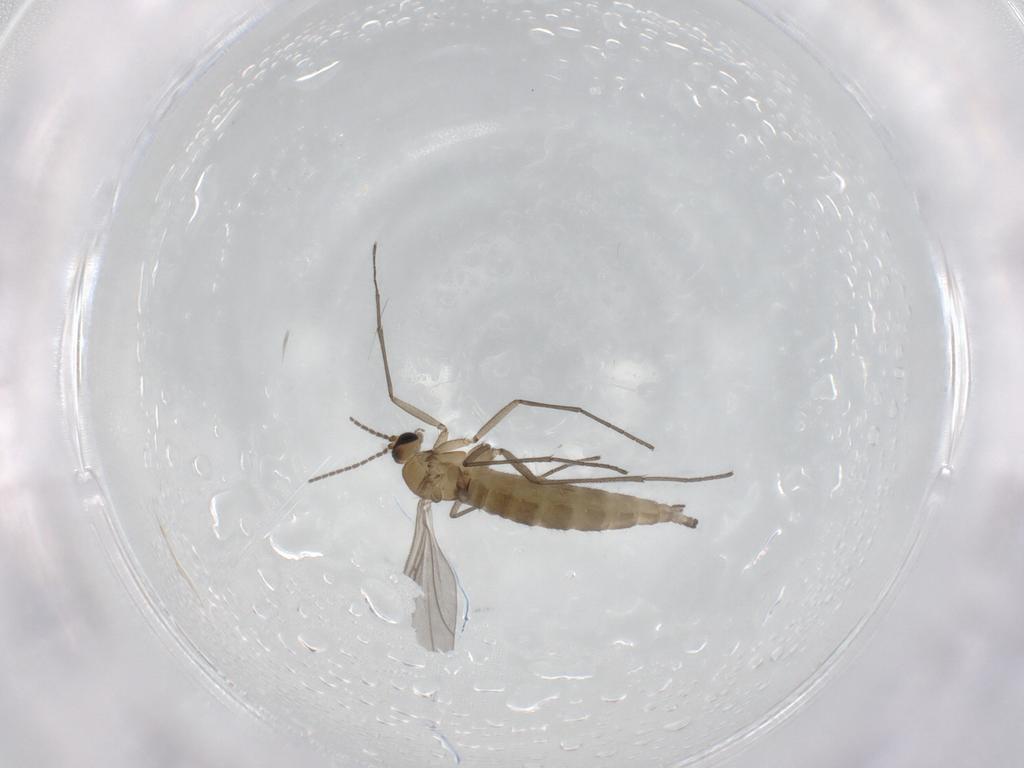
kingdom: Animalia
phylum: Arthropoda
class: Insecta
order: Diptera
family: Sciaridae
